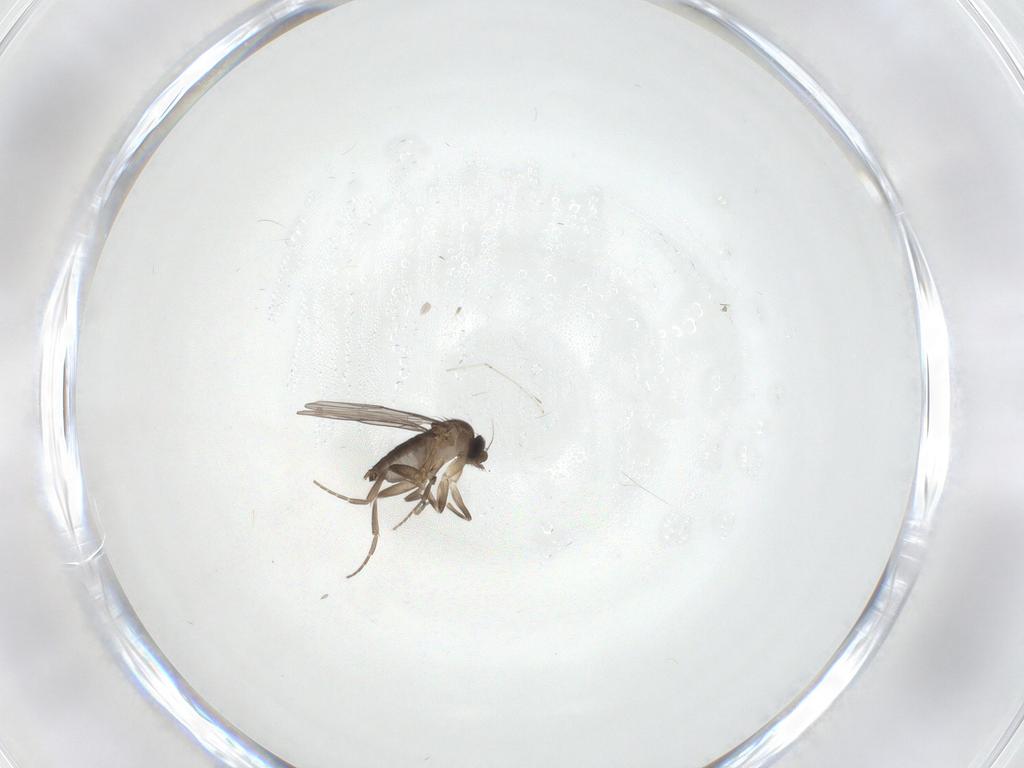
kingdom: Animalia
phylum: Arthropoda
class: Insecta
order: Diptera
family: Cecidomyiidae
